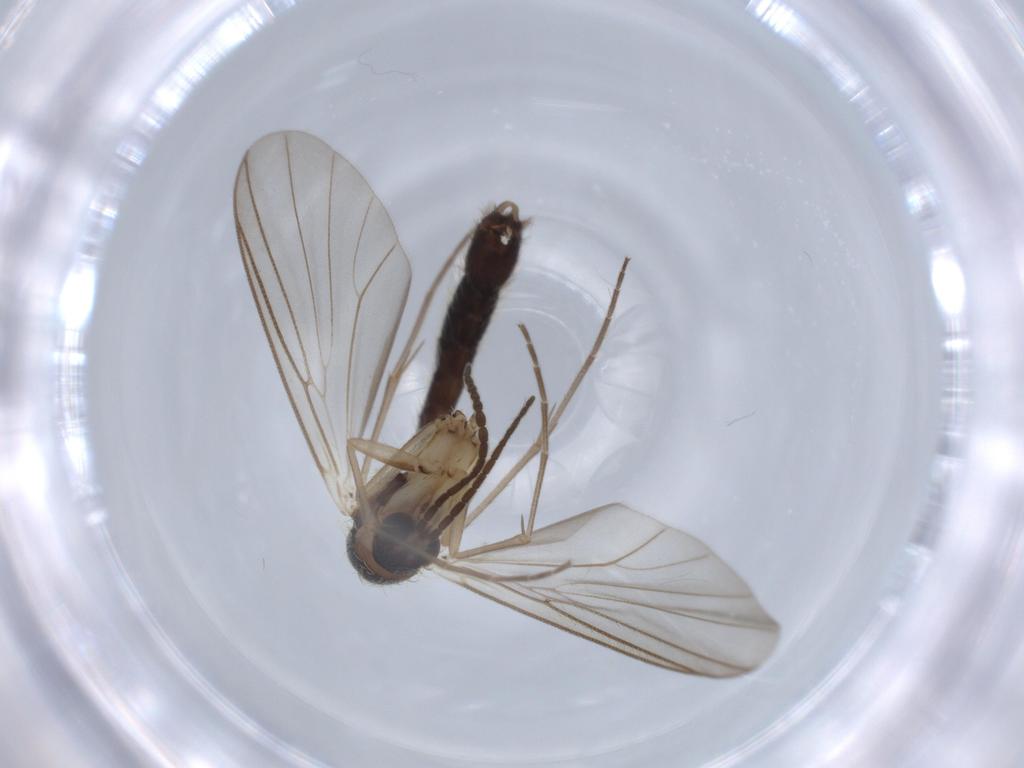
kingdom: Animalia
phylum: Arthropoda
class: Insecta
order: Diptera
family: Phoridae
